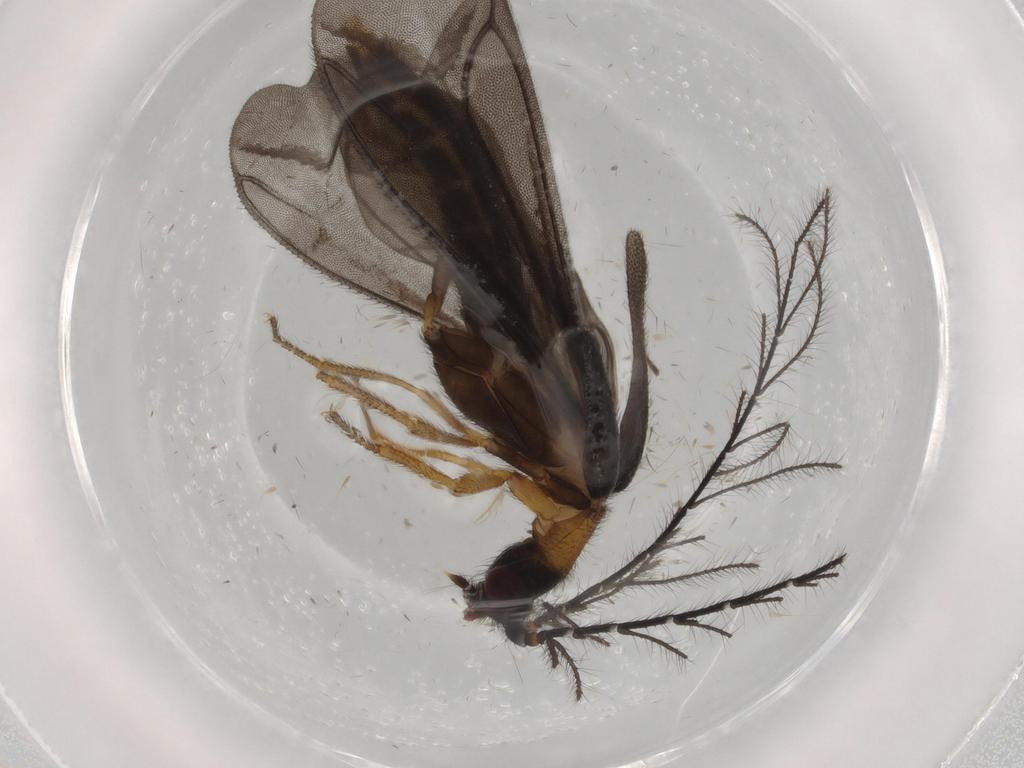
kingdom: Animalia
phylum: Arthropoda
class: Insecta
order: Coleoptera
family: Phengodidae
